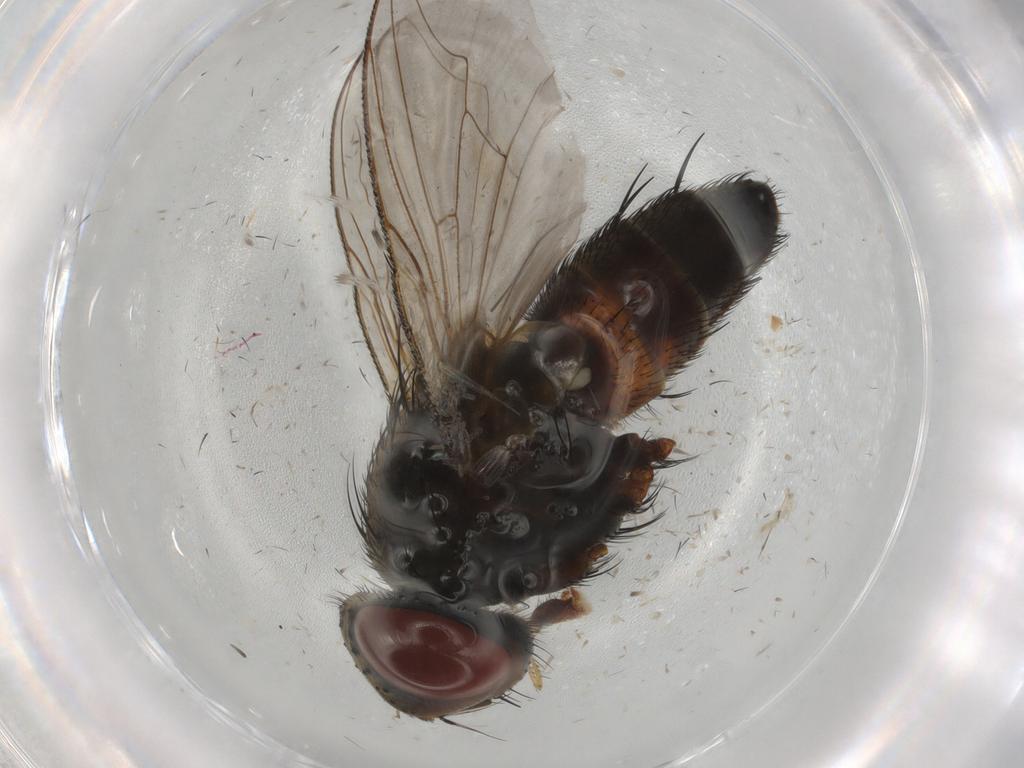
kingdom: Animalia
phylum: Arthropoda
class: Insecta
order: Diptera
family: Sarcophagidae
